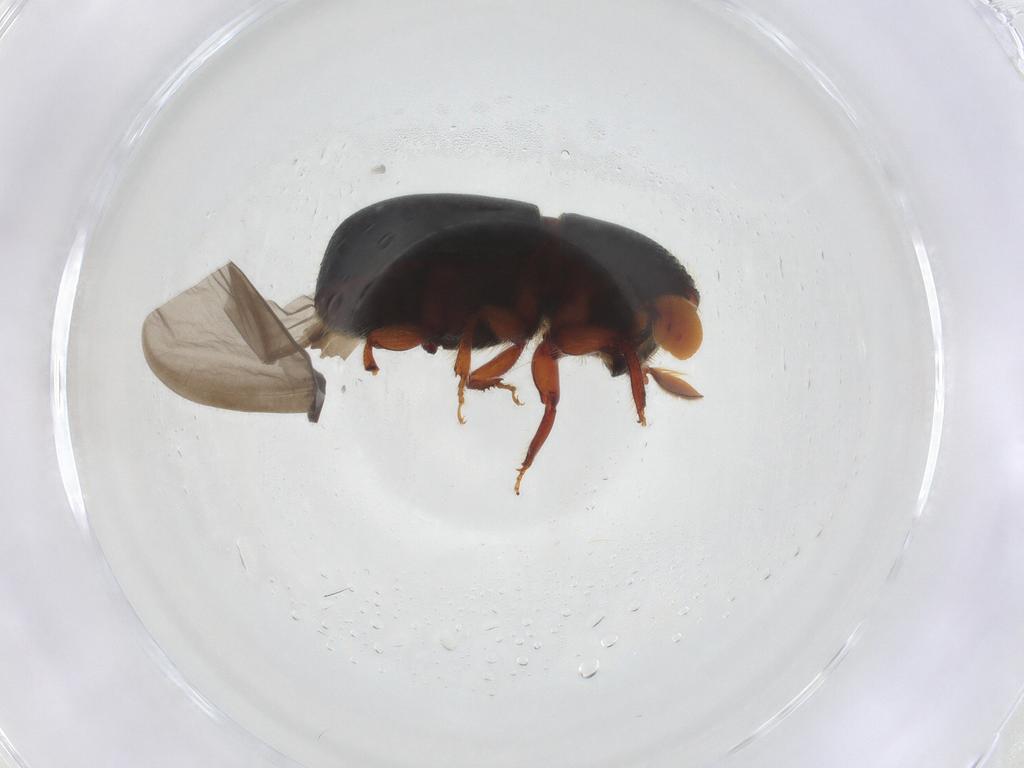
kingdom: Animalia
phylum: Arthropoda
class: Insecta
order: Coleoptera
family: Curculionidae
